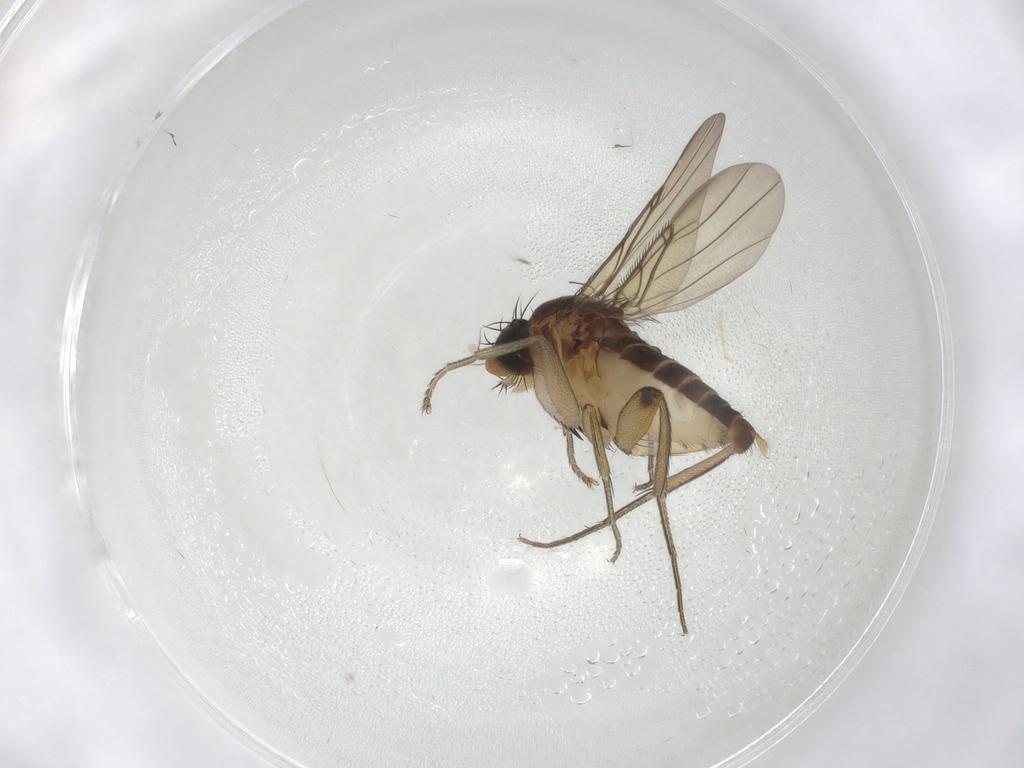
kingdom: Animalia
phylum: Arthropoda
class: Insecta
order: Diptera
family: Phoridae
